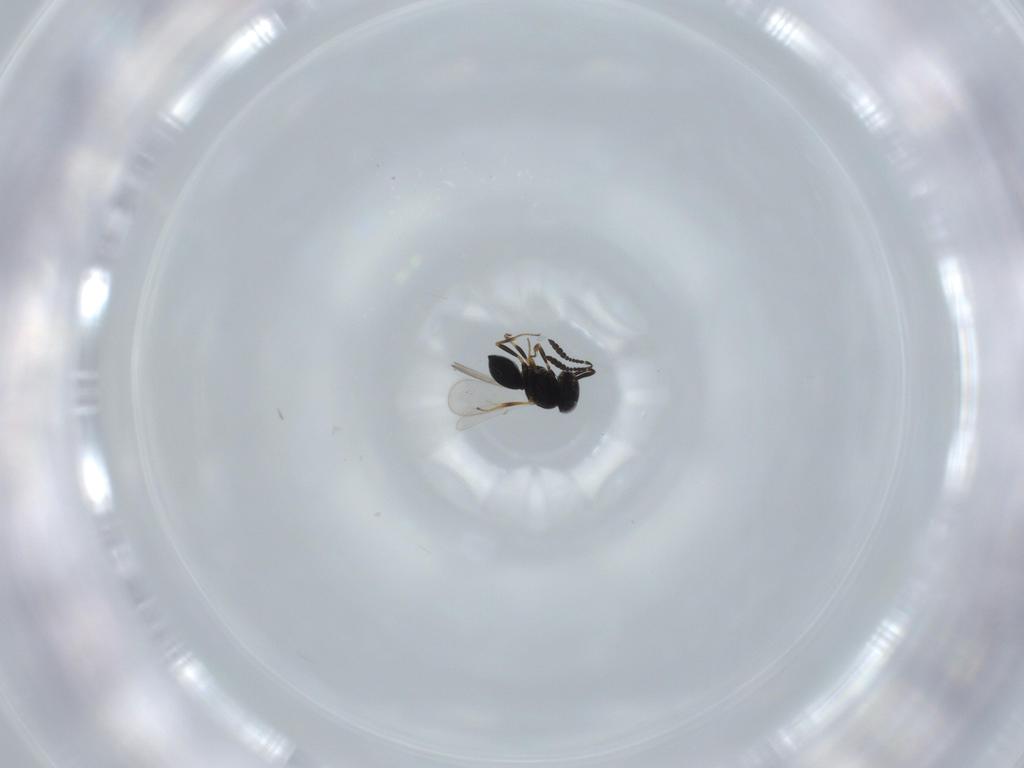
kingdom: Animalia
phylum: Arthropoda
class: Insecta
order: Hymenoptera
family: Scelionidae
